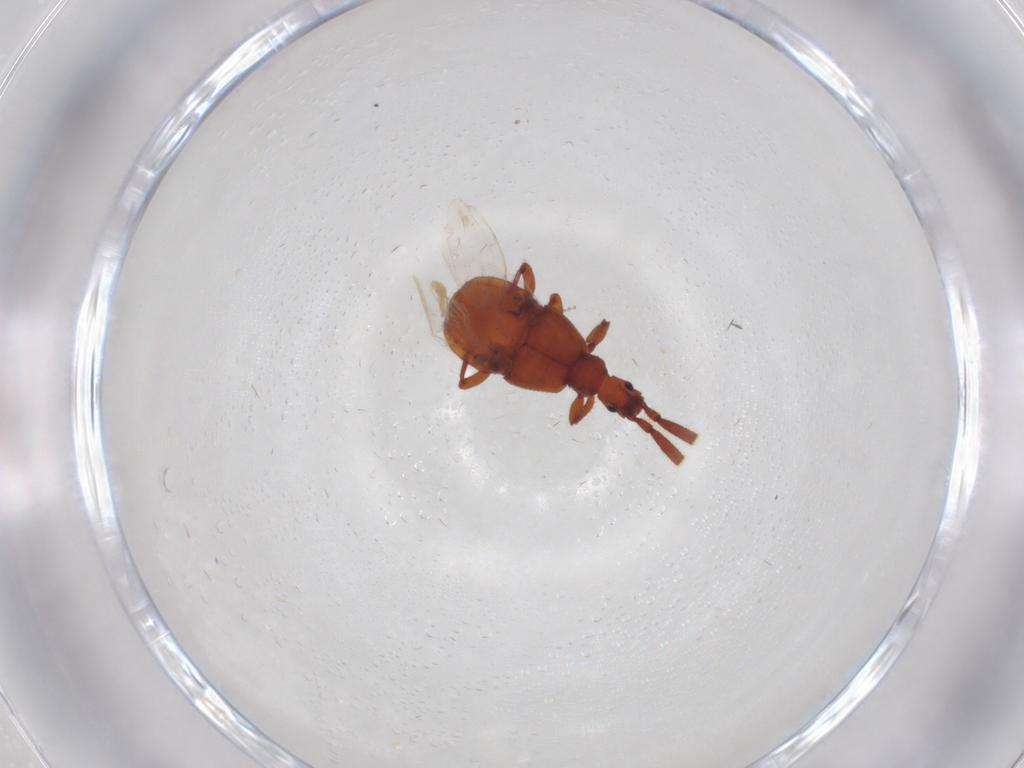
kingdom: Animalia
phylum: Arthropoda
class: Insecta
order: Coleoptera
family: Staphylinidae
